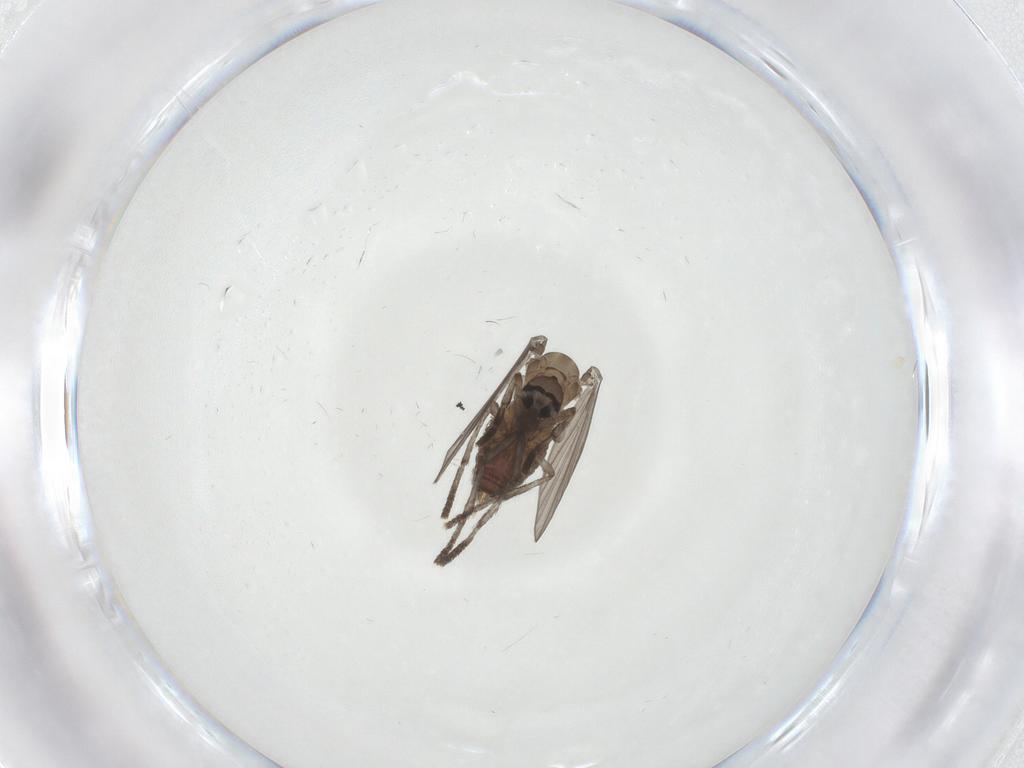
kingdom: Animalia
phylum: Arthropoda
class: Insecta
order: Diptera
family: Psychodidae
